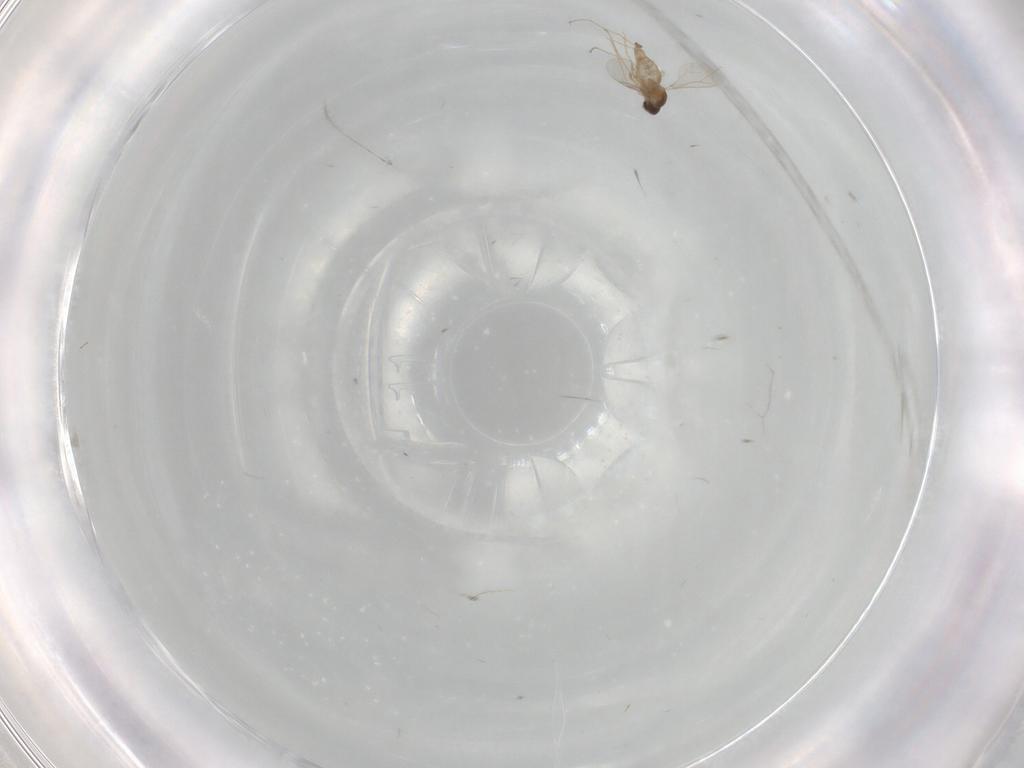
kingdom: Animalia
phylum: Arthropoda
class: Insecta
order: Diptera
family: Cecidomyiidae
